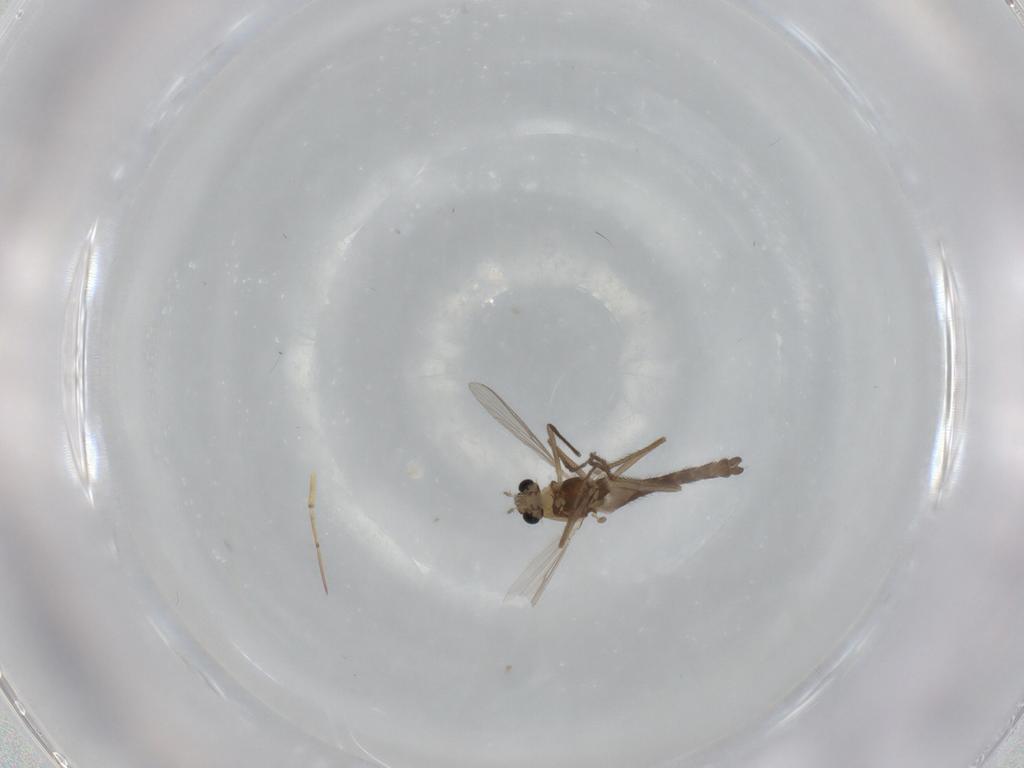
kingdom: Animalia
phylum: Arthropoda
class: Insecta
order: Diptera
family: Chironomidae
